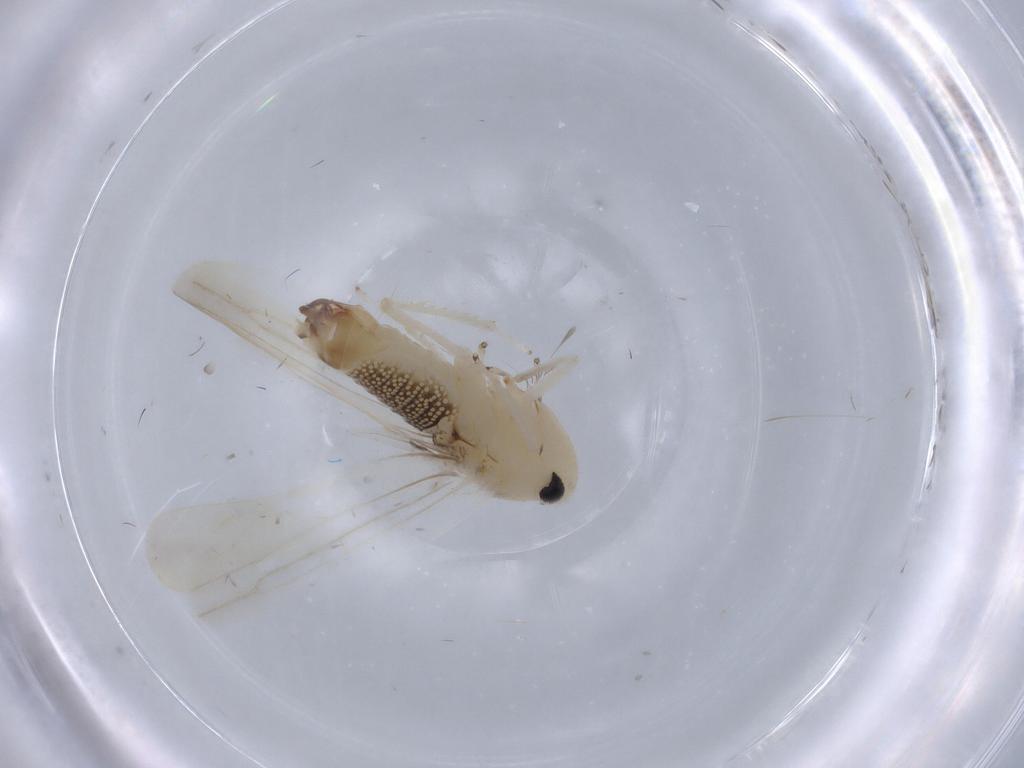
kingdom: Animalia
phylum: Arthropoda
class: Insecta
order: Hemiptera
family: Cicadellidae
